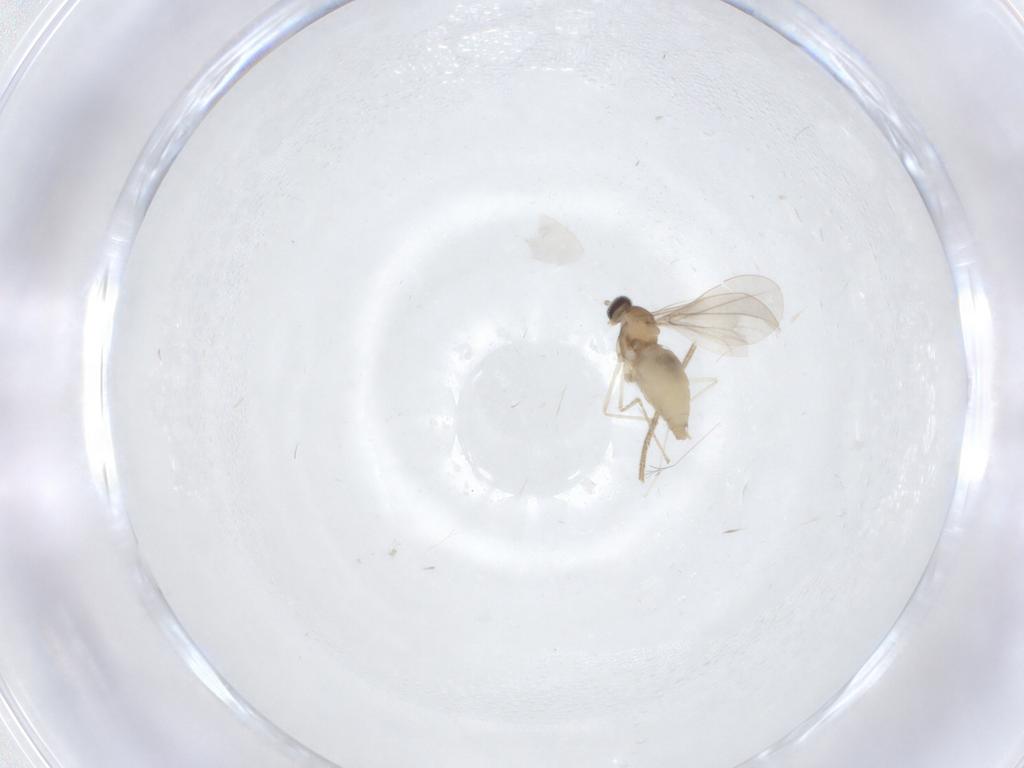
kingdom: Animalia
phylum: Arthropoda
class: Insecta
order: Diptera
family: Cecidomyiidae
